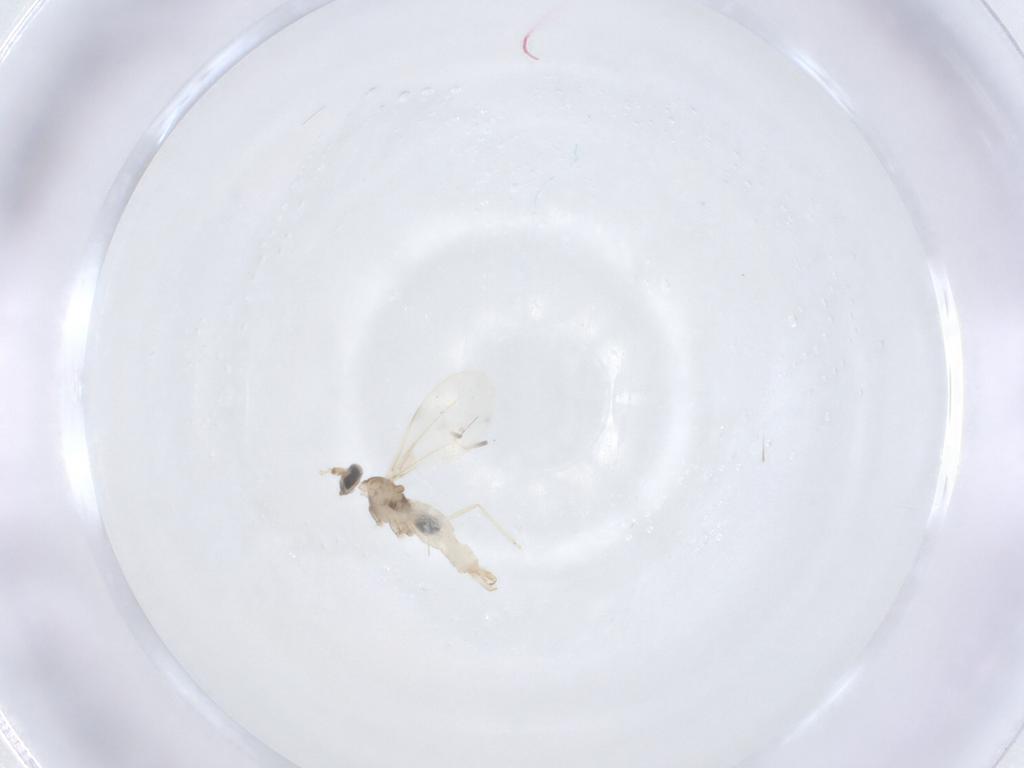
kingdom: Animalia
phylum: Arthropoda
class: Insecta
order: Diptera
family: Cecidomyiidae
